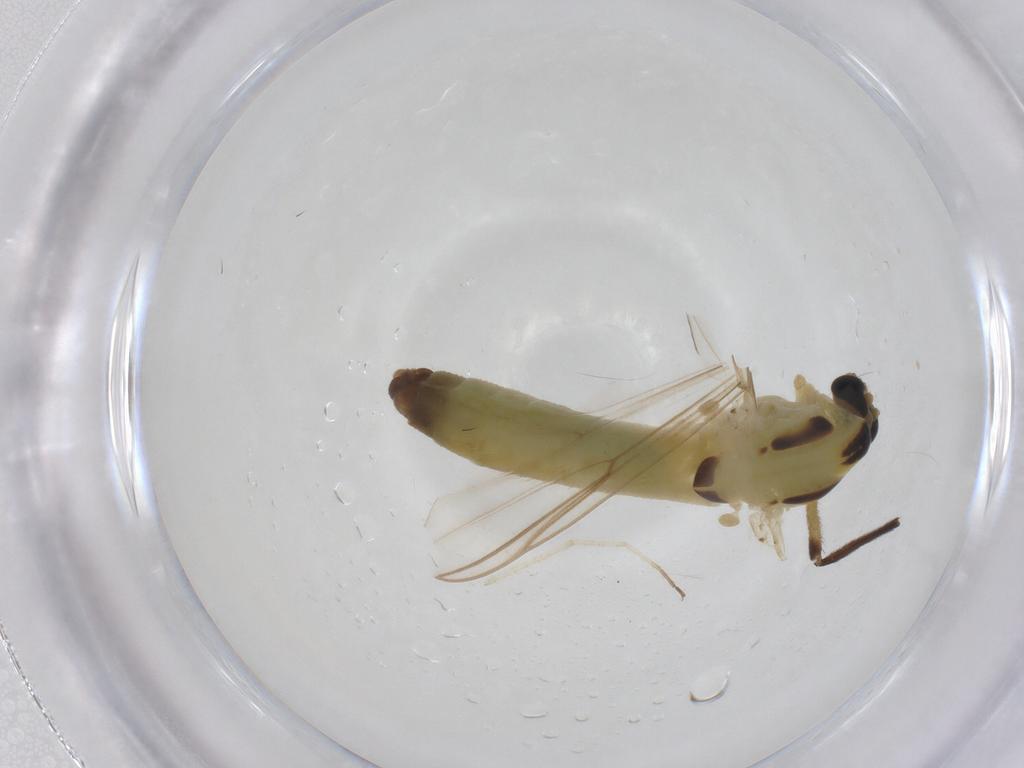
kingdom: Animalia
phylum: Arthropoda
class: Insecta
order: Diptera
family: Chironomidae
